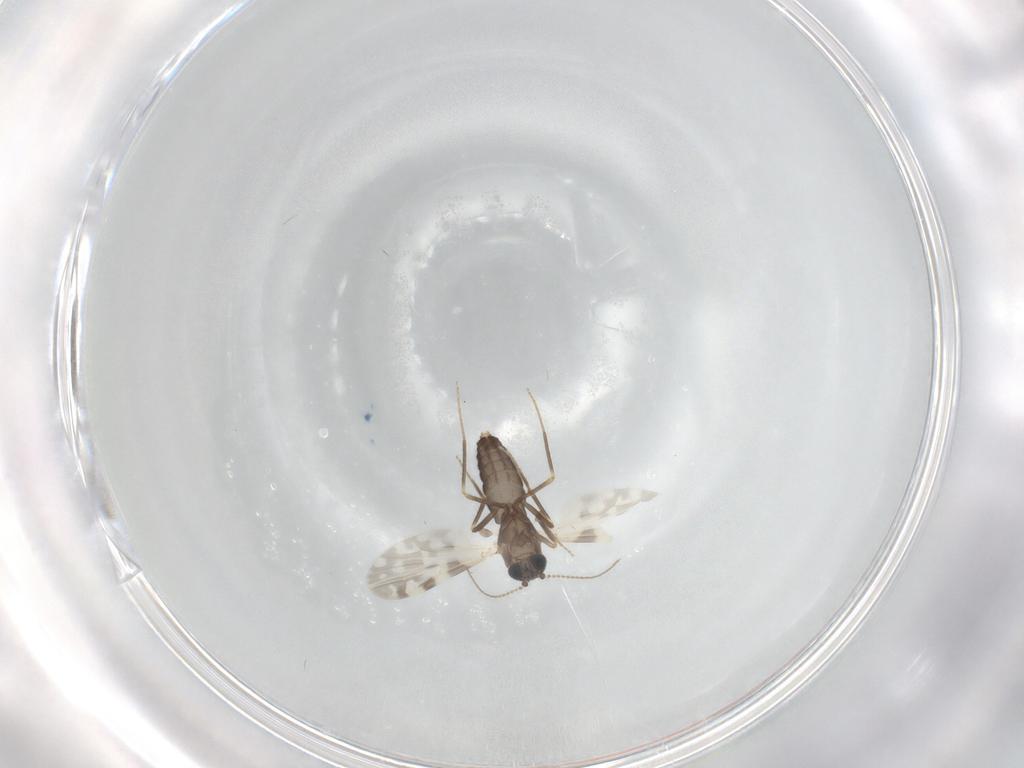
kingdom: Animalia
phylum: Arthropoda
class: Insecta
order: Diptera
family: Ceratopogonidae
